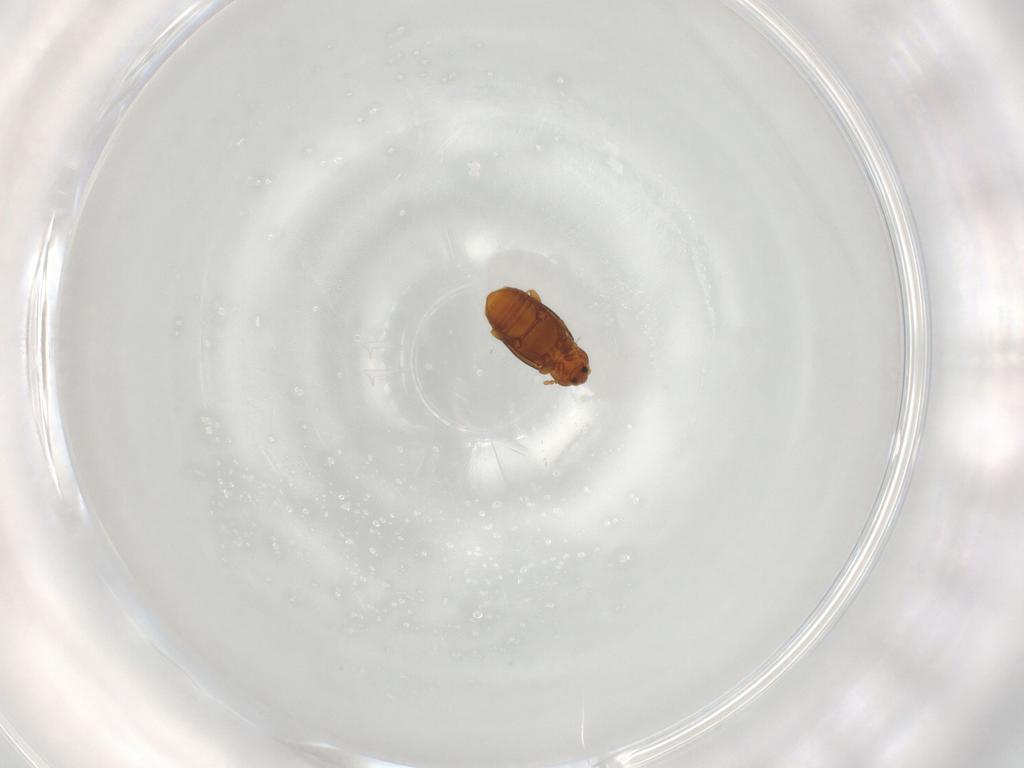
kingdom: Animalia
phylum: Arthropoda
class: Insecta
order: Coleoptera
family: Corylophidae
